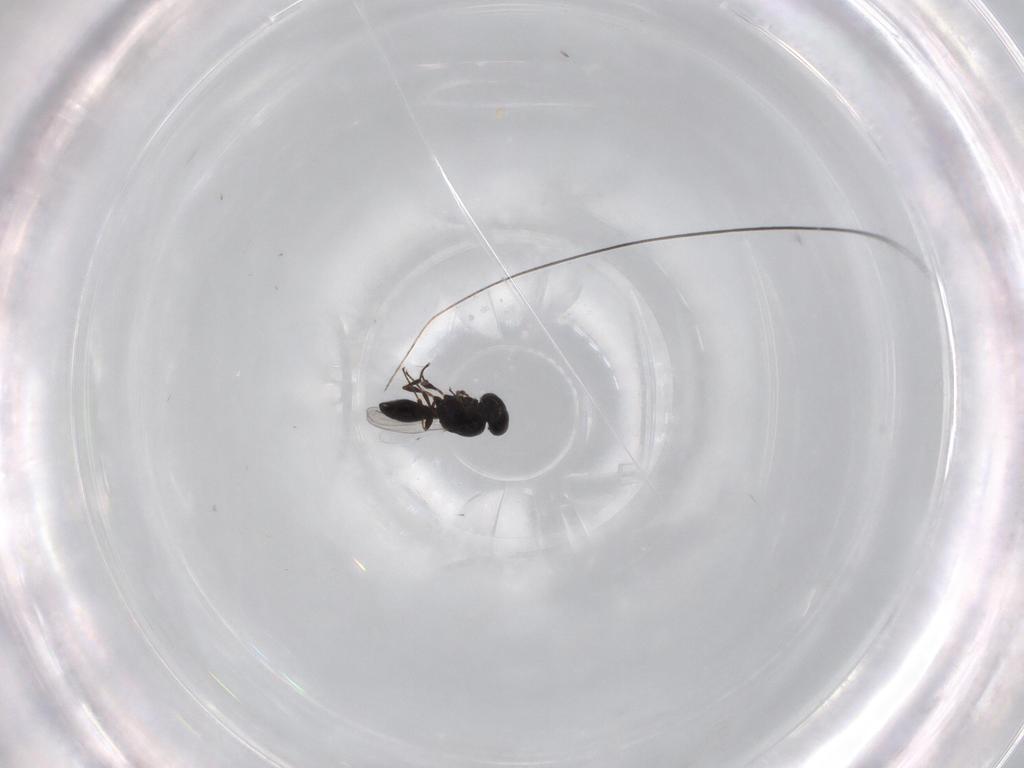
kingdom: Animalia
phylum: Arthropoda
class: Insecta
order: Hymenoptera
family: Platygastridae
